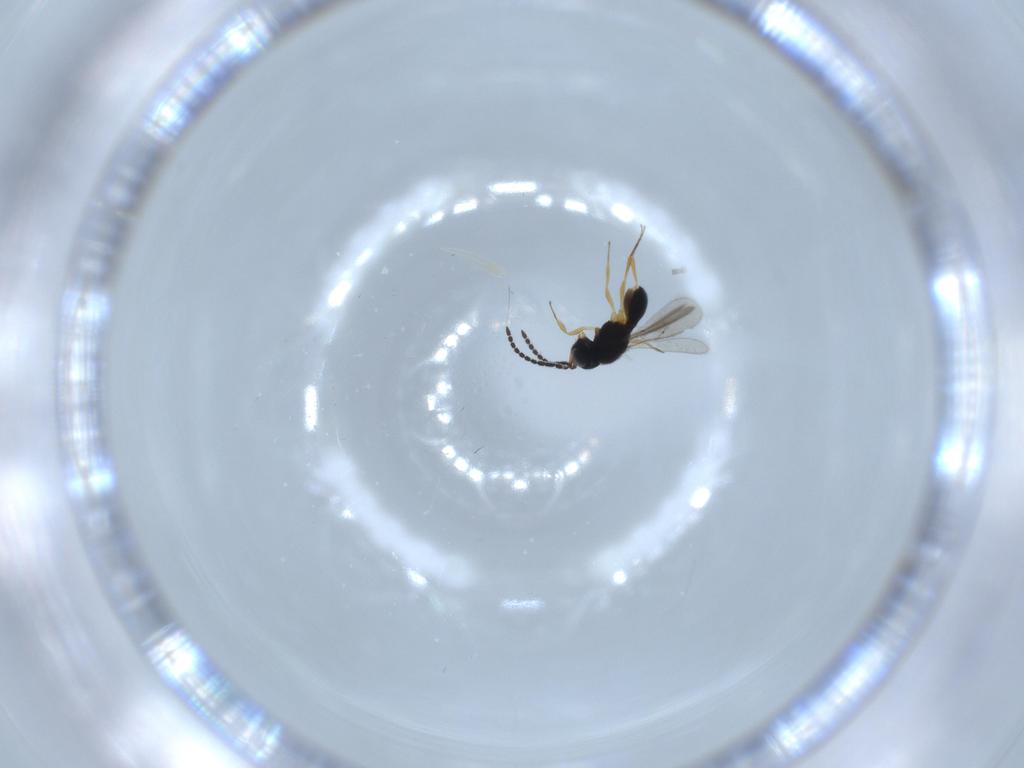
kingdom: Animalia
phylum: Arthropoda
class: Insecta
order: Hymenoptera
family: Scelionidae
